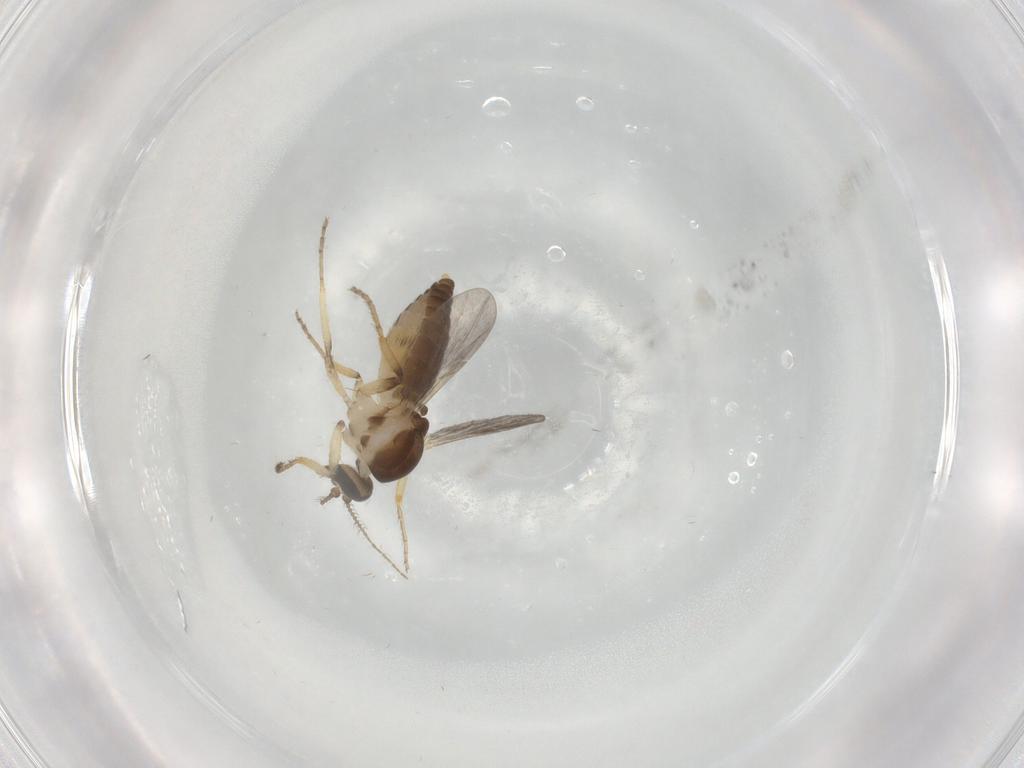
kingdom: Animalia
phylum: Arthropoda
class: Insecta
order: Diptera
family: Ceratopogonidae
